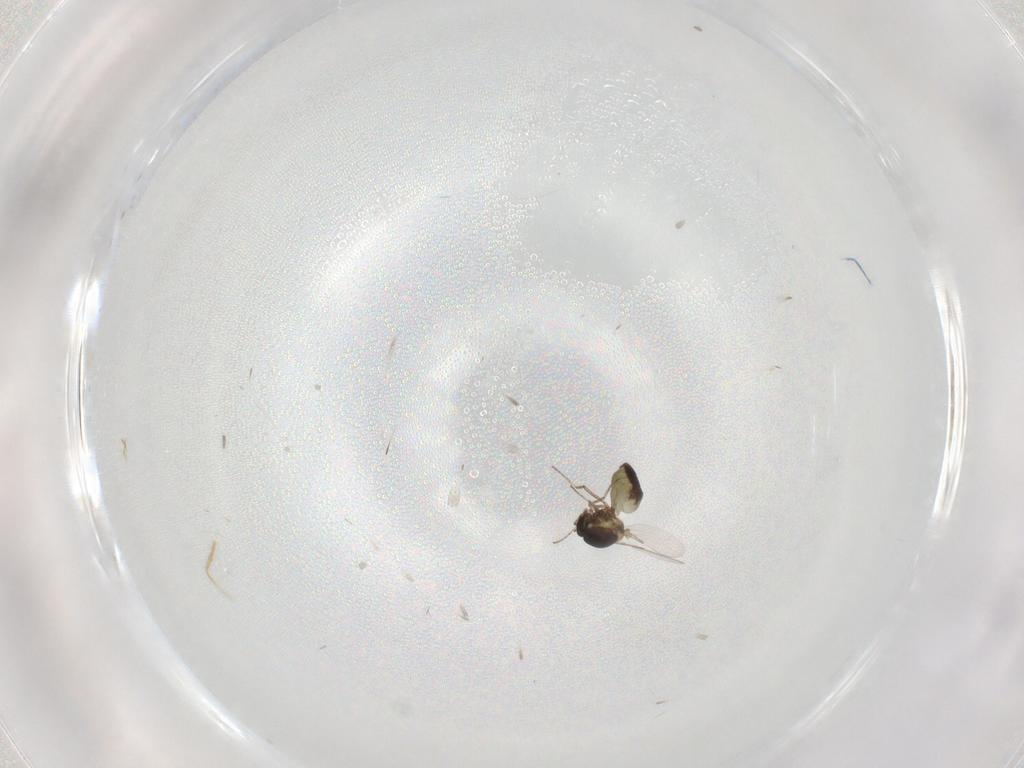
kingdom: Animalia
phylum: Arthropoda
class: Insecta
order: Diptera
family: Ceratopogonidae
